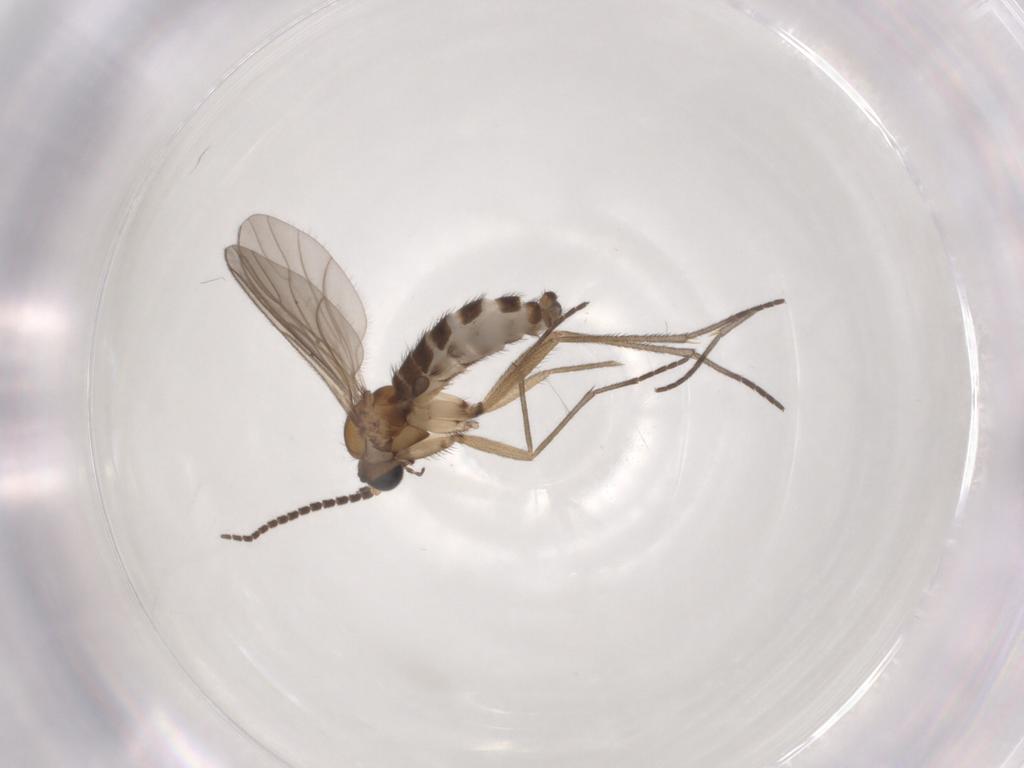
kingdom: Animalia
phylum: Arthropoda
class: Insecta
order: Diptera
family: Sciaridae
